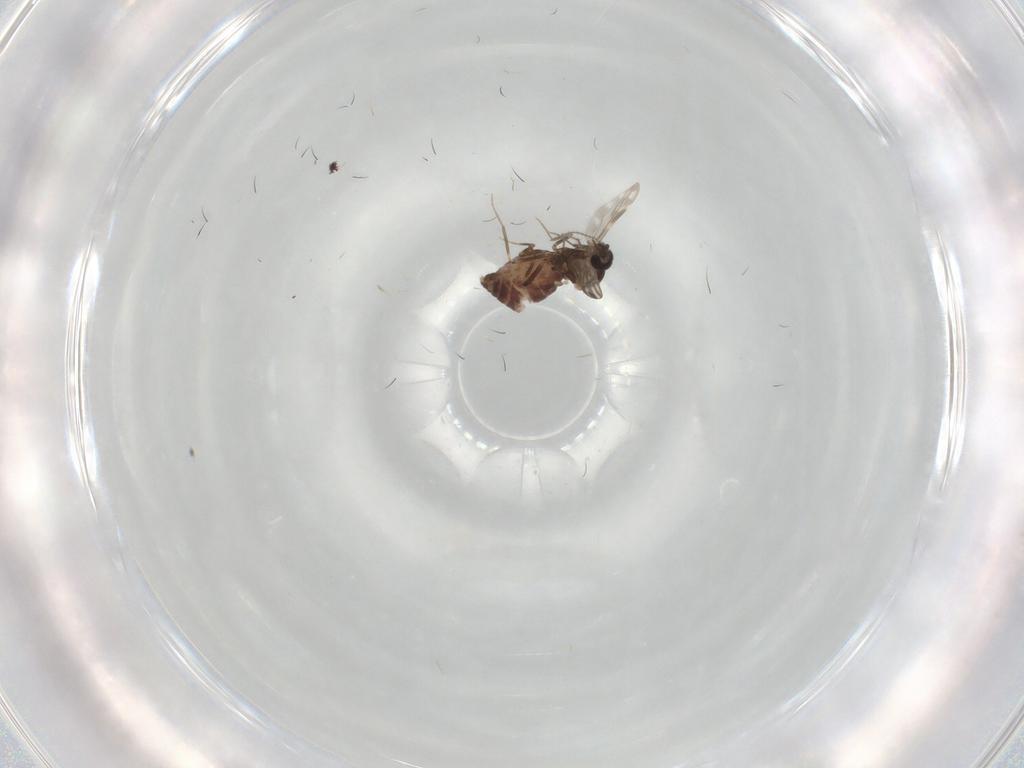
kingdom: Animalia
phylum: Arthropoda
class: Insecta
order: Diptera
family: Ceratopogonidae
